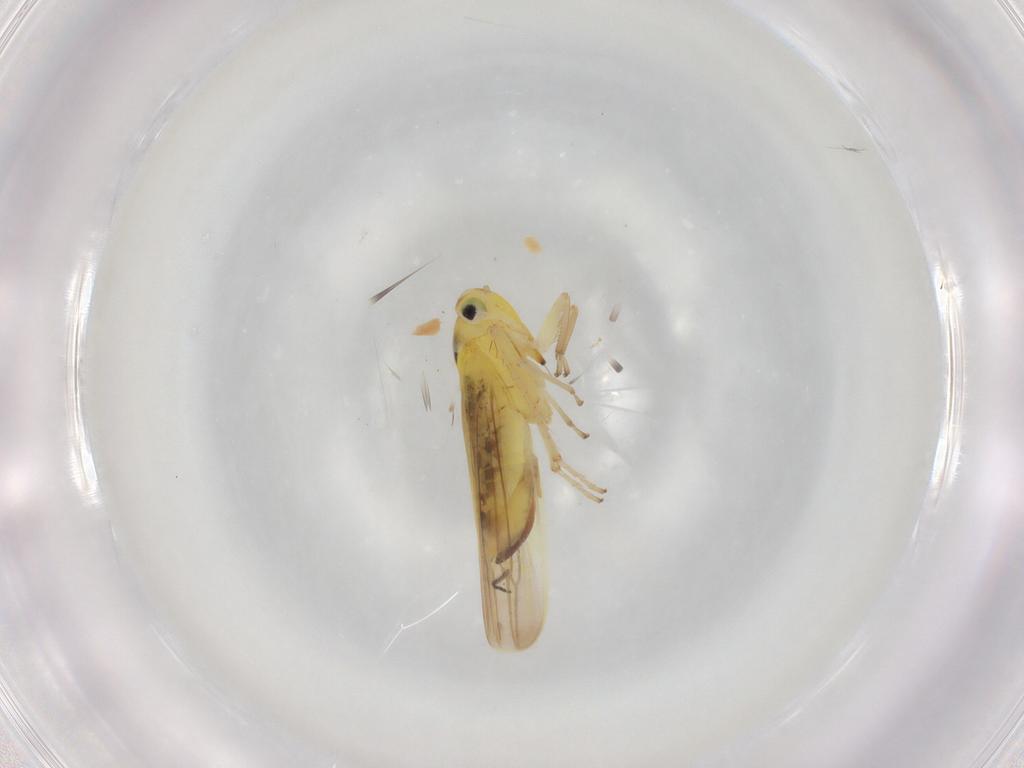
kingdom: Animalia
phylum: Arthropoda
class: Insecta
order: Hemiptera
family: Cicadellidae
